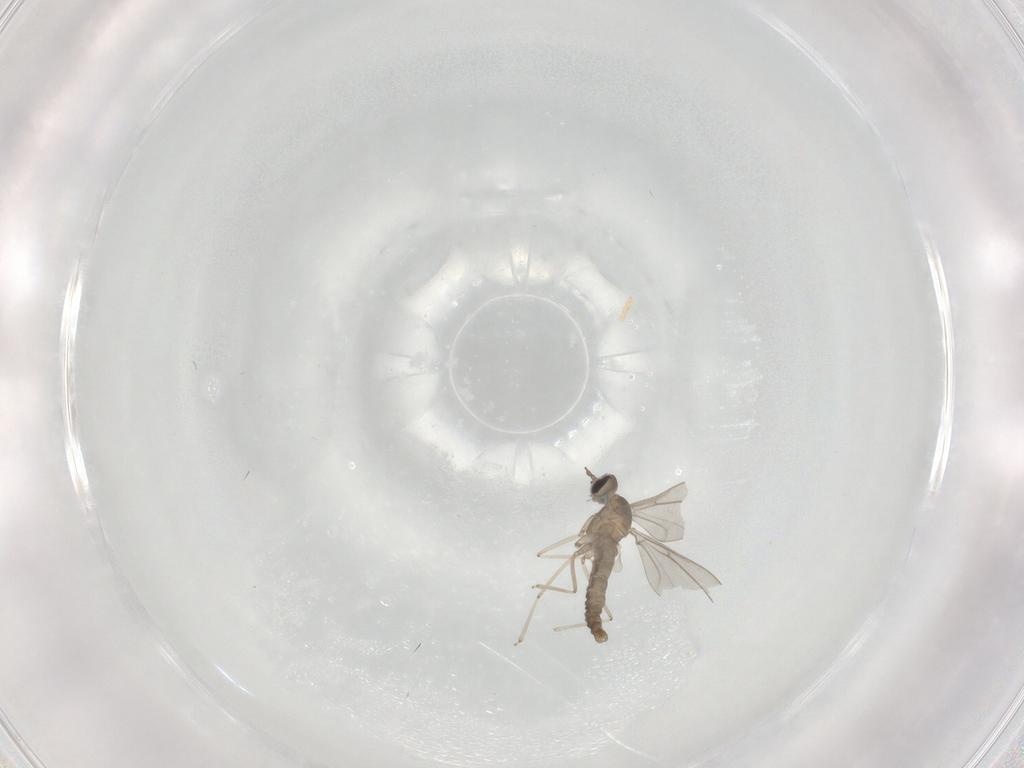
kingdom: Animalia
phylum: Arthropoda
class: Insecta
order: Diptera
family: Cecidomyiidae
